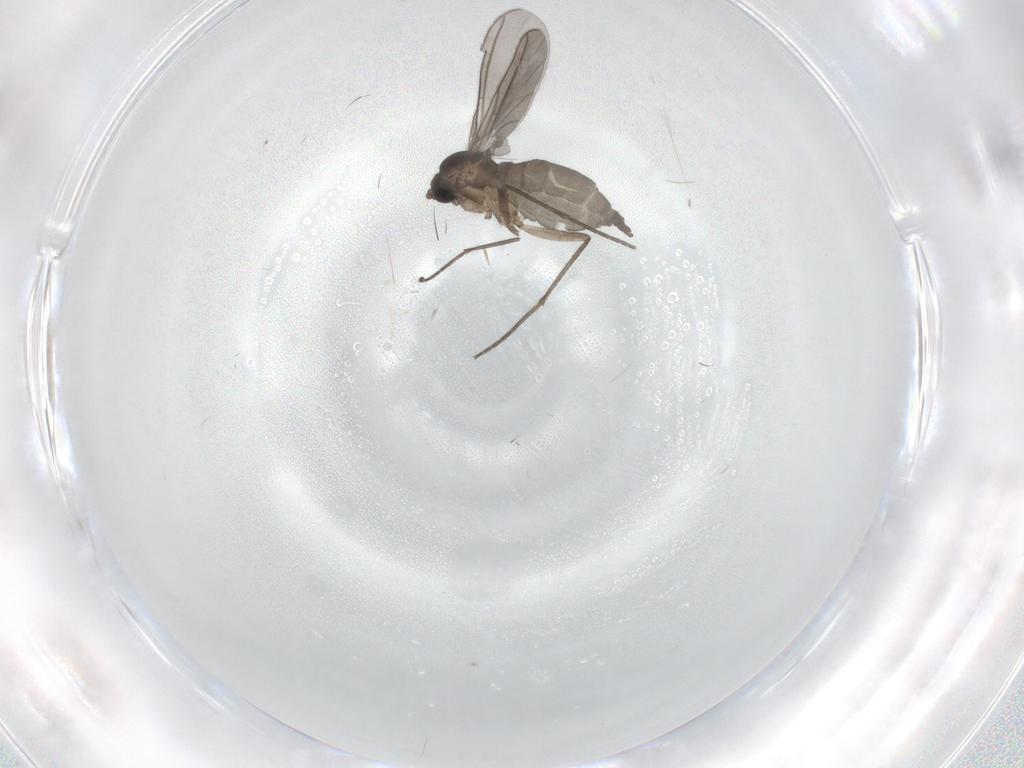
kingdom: Animalia
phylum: Arthropoda
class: Insecta
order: Diptera
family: Sciaridae
